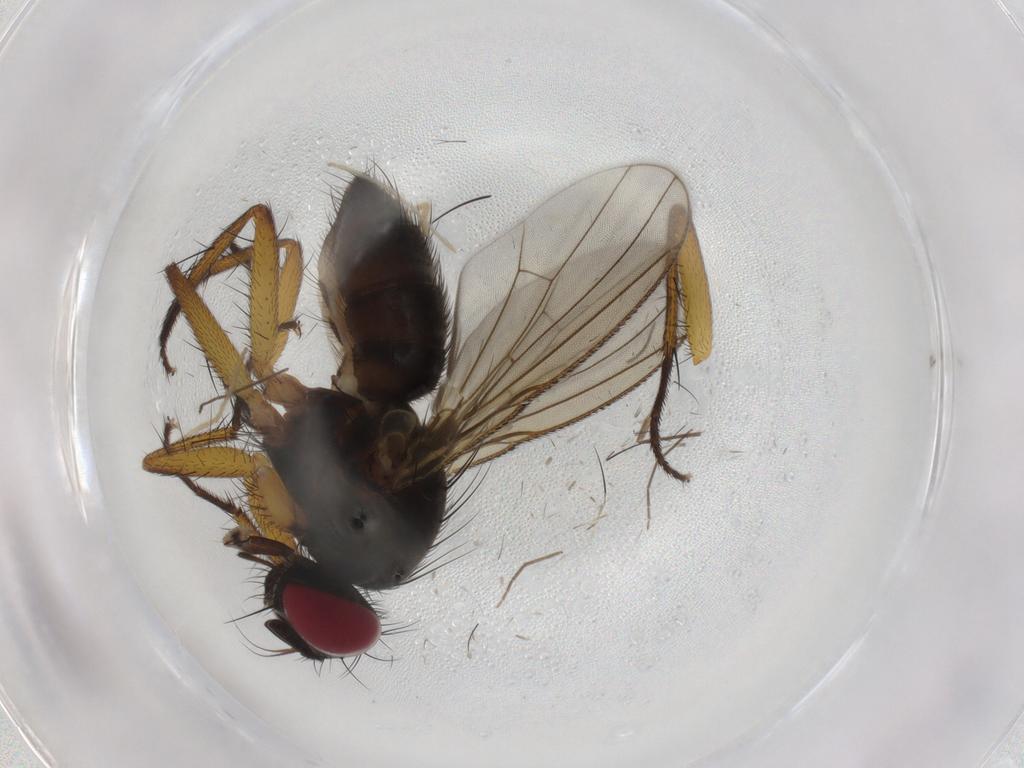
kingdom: Animalia
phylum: Arthropoda
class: Insecta
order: Diptera
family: Muscidae
